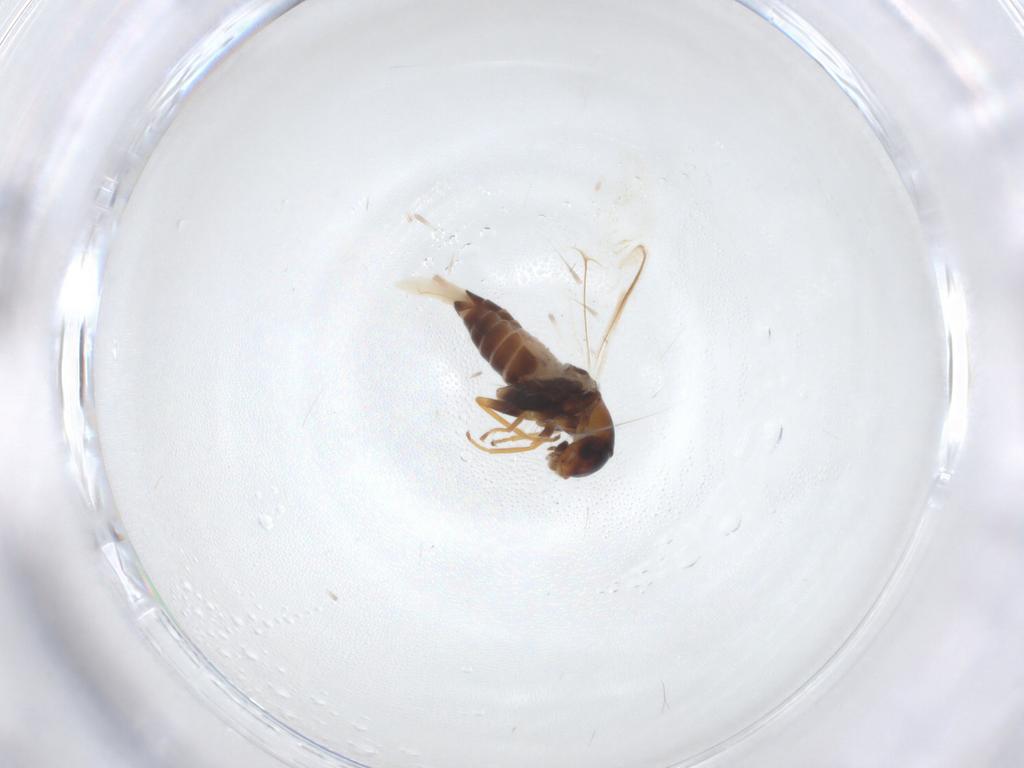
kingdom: Animalia
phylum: Arthropoda
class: Insecta
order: Coleoptera
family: Melyridae
